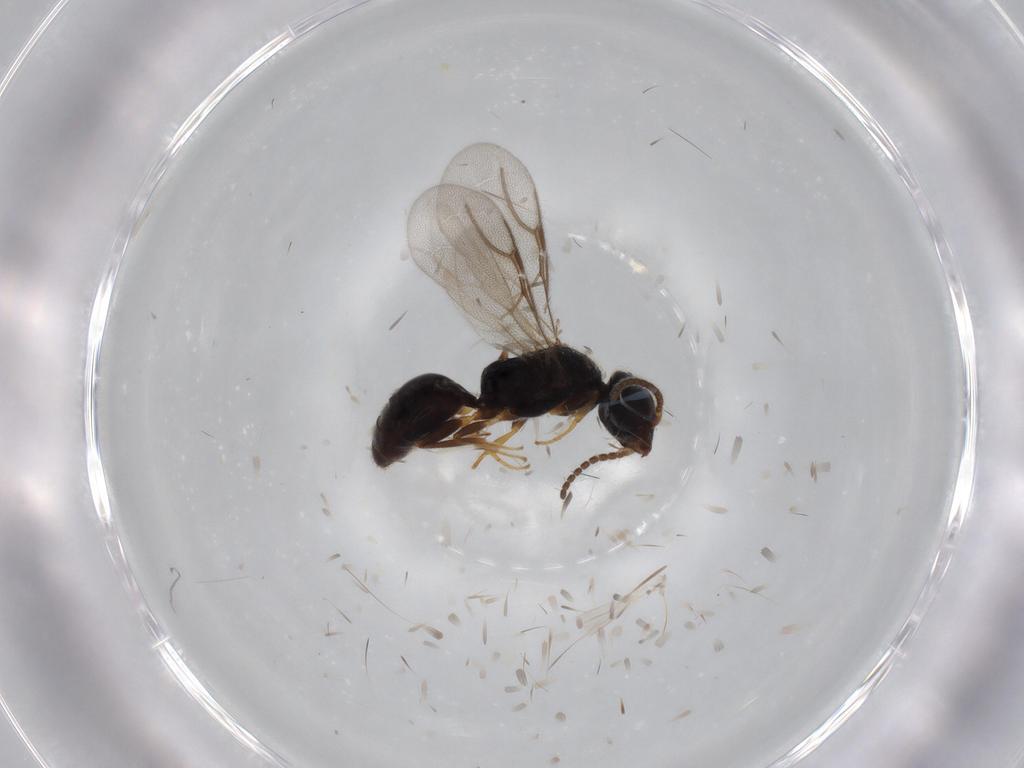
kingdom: Animalia
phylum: Arthropoda
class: Insecta
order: Hymenoptera
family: Bethylidae
